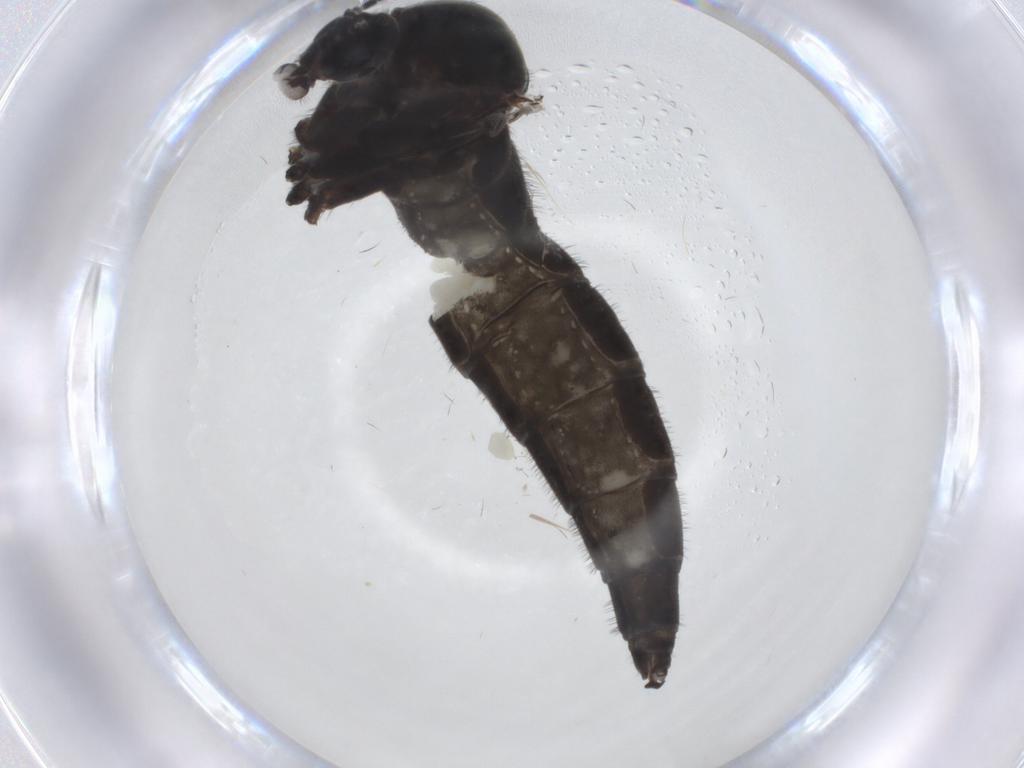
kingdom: Animalia
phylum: Arthropoda
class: Insecta
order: Diptera
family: Sciaridae
